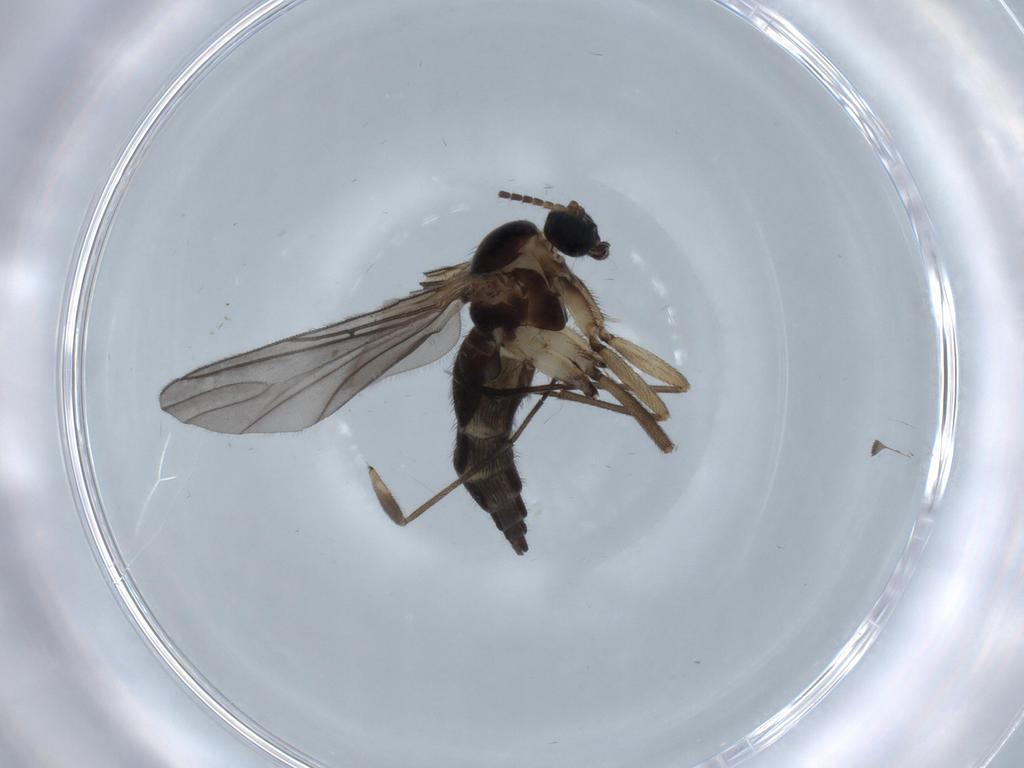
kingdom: Animalia
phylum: Arthropoda
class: Insecta
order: Diptera
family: Sciaridae
